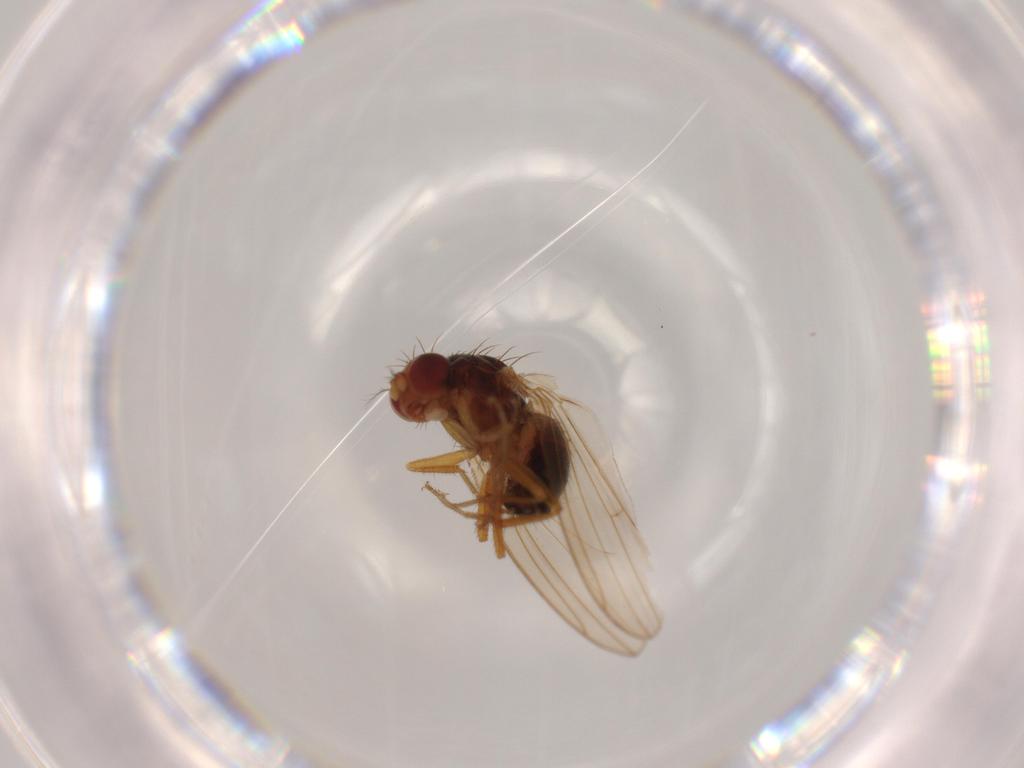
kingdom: Animalia
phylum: Arthropoda
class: Insecta
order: Diptera
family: Drosophilidae
